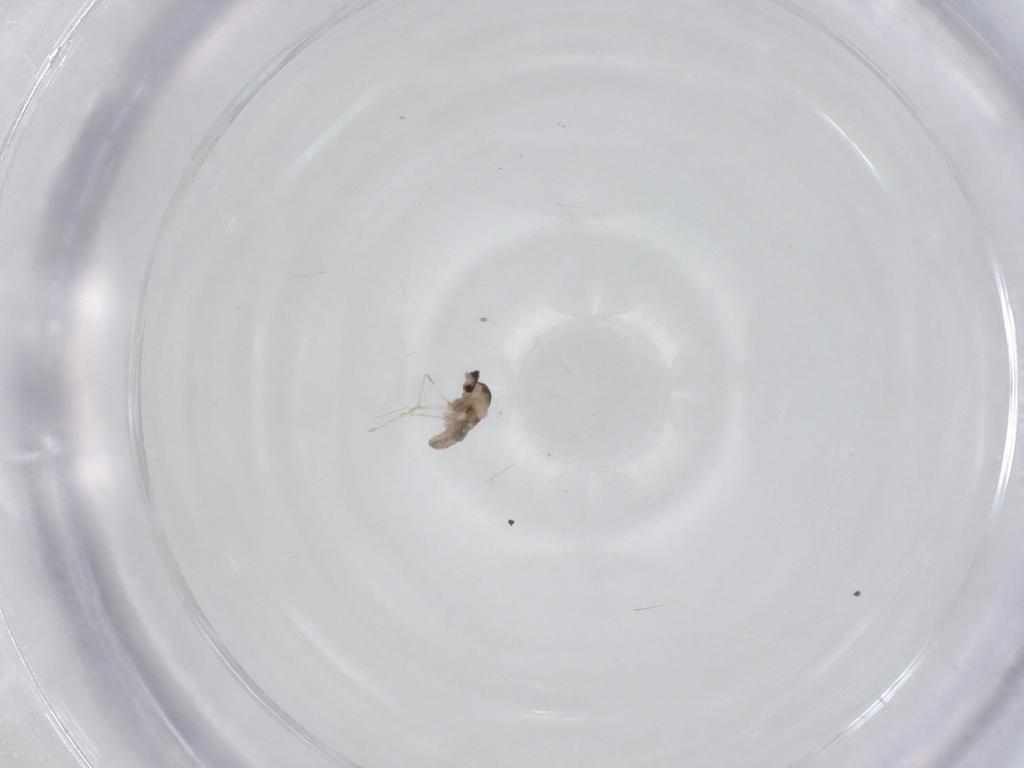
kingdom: Animalia
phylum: Arthropoda
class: Insecta
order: Diptera
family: Cecidomyiidae
